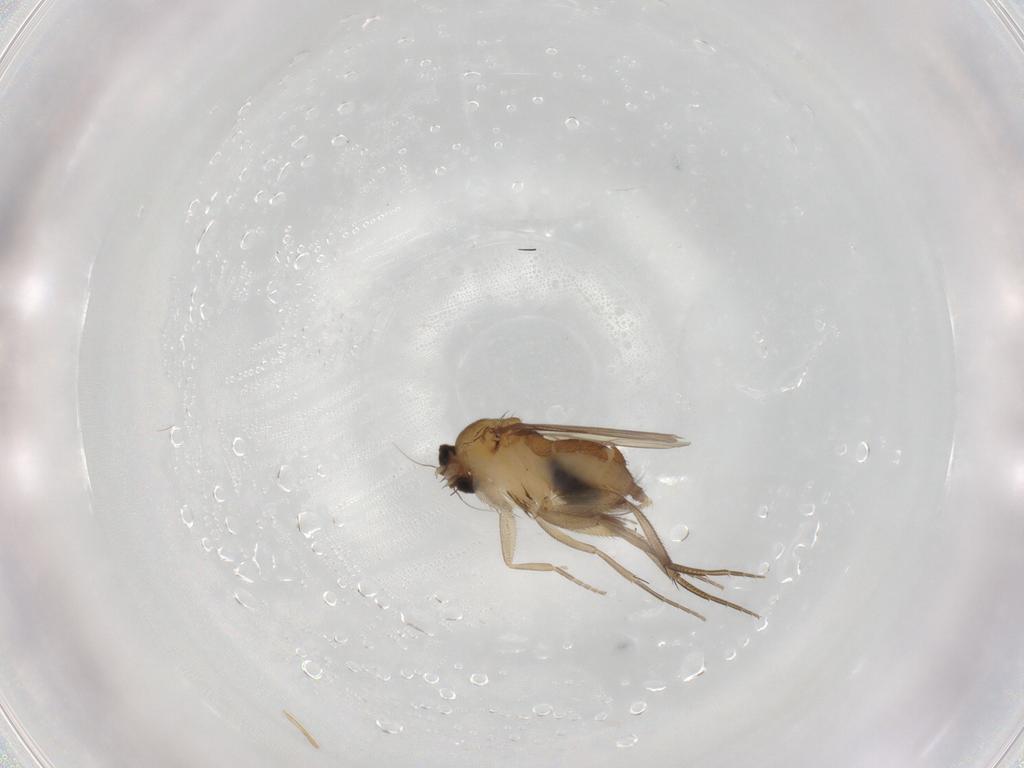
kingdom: Animalia
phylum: Arthropoda
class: Insecta
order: Diptera
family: Ceratopogonidae
